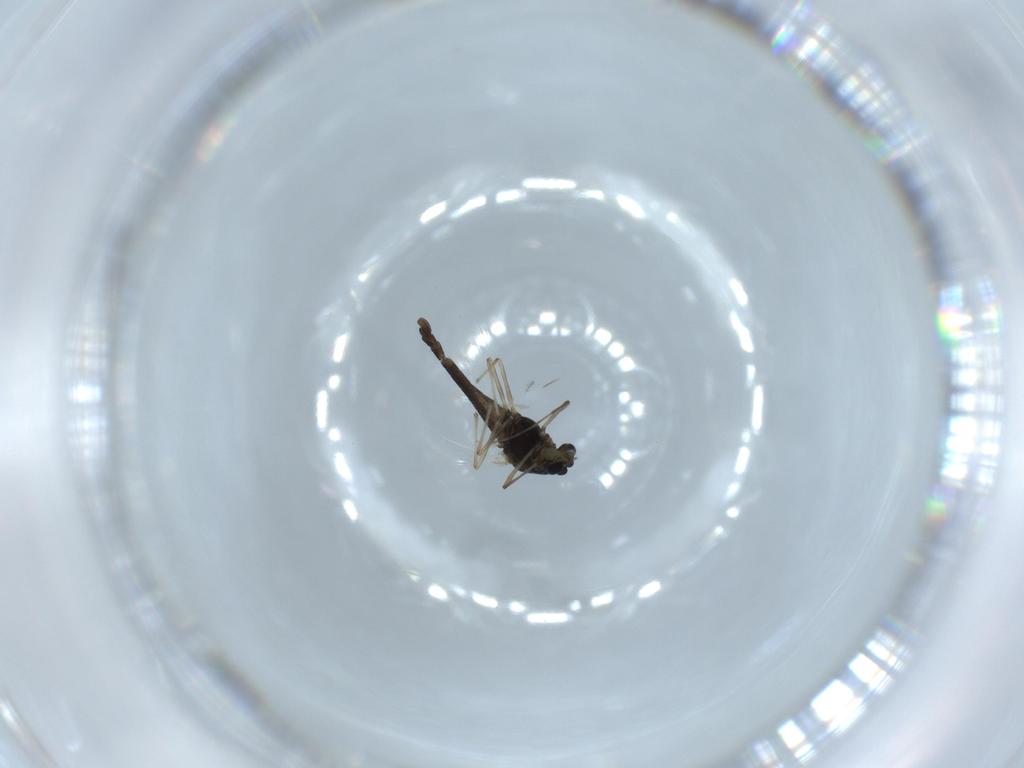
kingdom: Animalia
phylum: Arthropoda
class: Insecta
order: Diptera
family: Chironomidae
